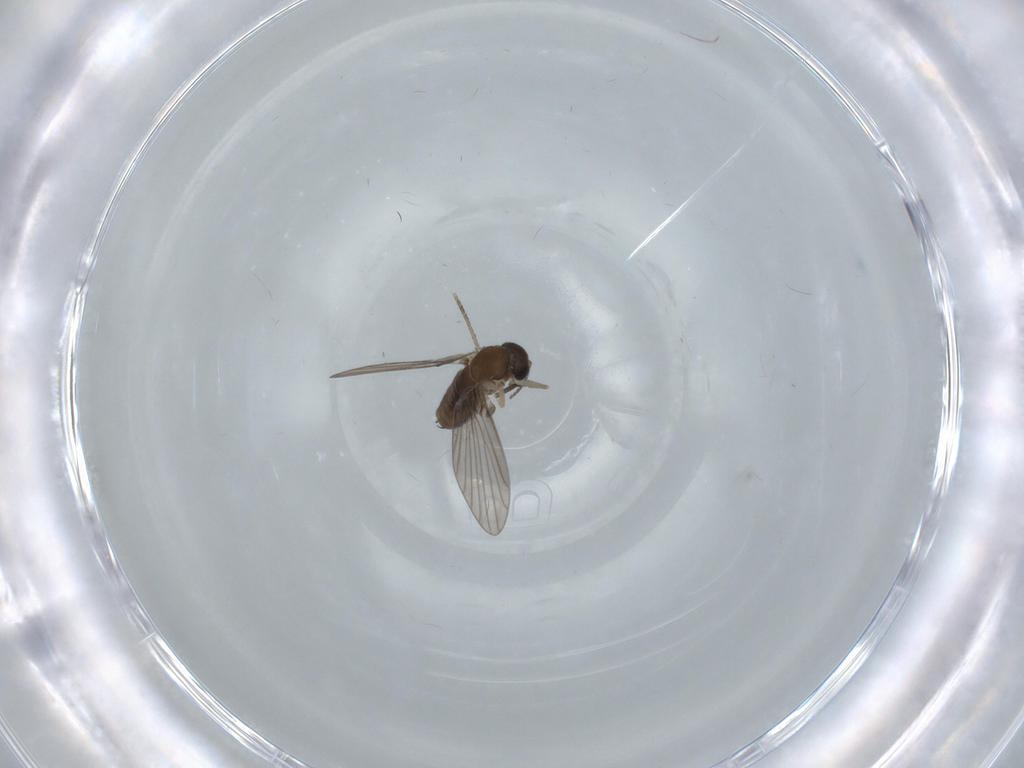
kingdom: Animalia
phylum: Arthropoda
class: Insecta
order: Diptera
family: Psychodidae
